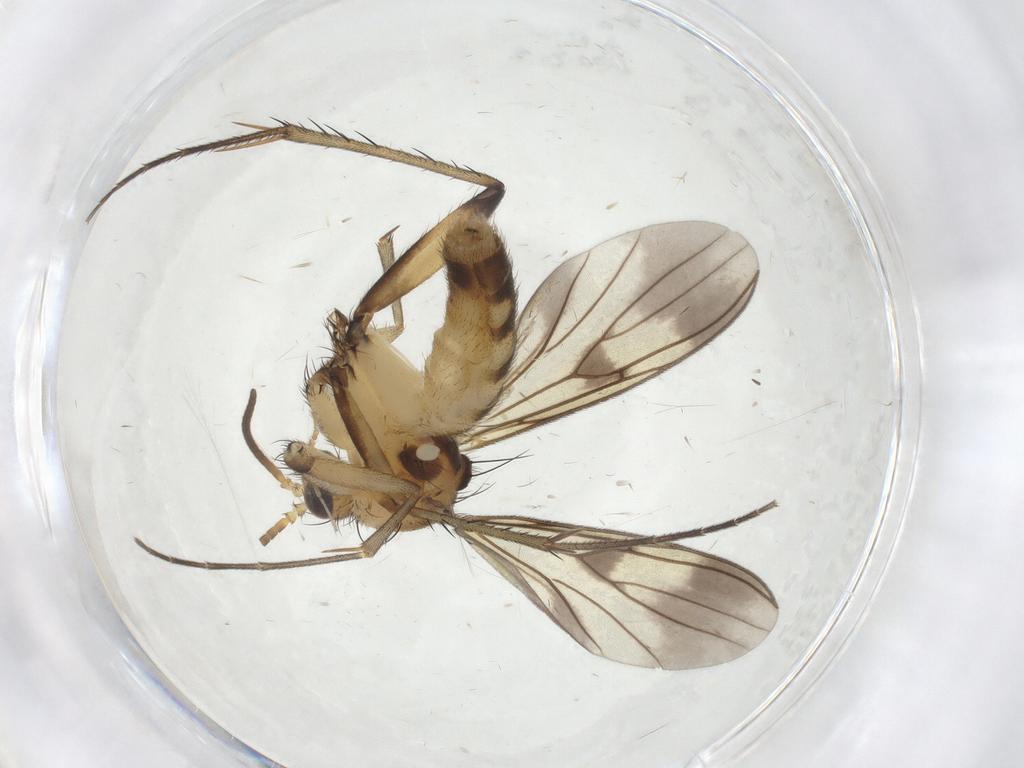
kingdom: Animalia
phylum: Arthropoda
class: Insecta
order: Diptera
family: Mycetophilidae
